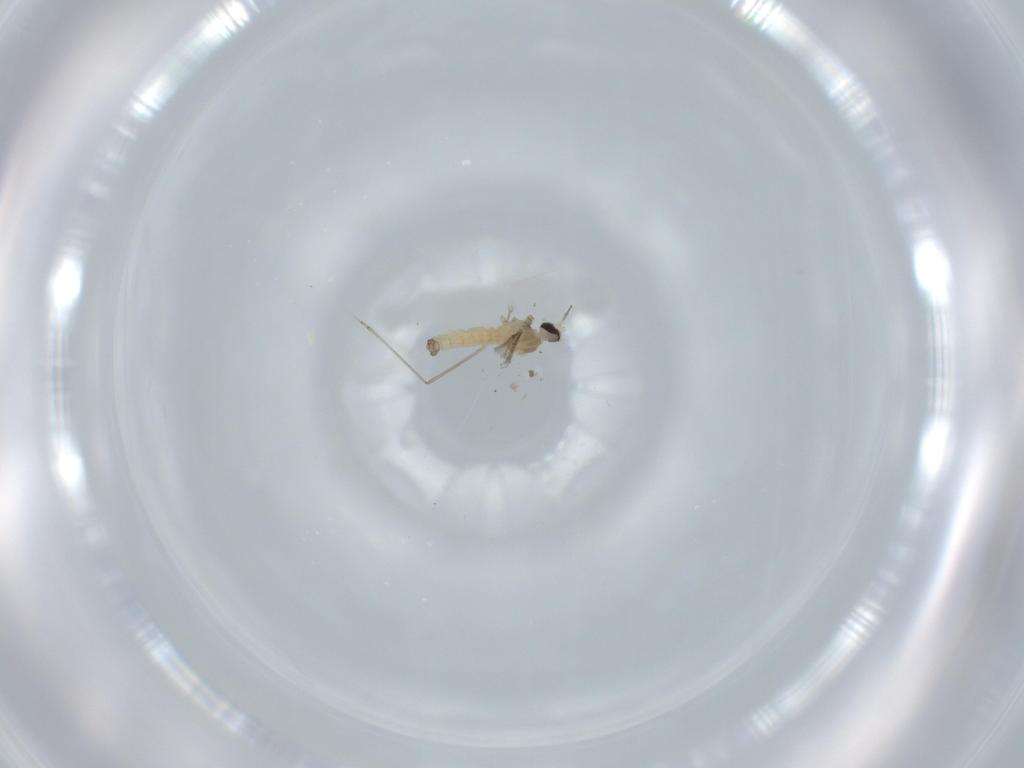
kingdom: Animalia
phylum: Arthropoda
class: Insecta
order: Diptera
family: Cecidomyiidae
